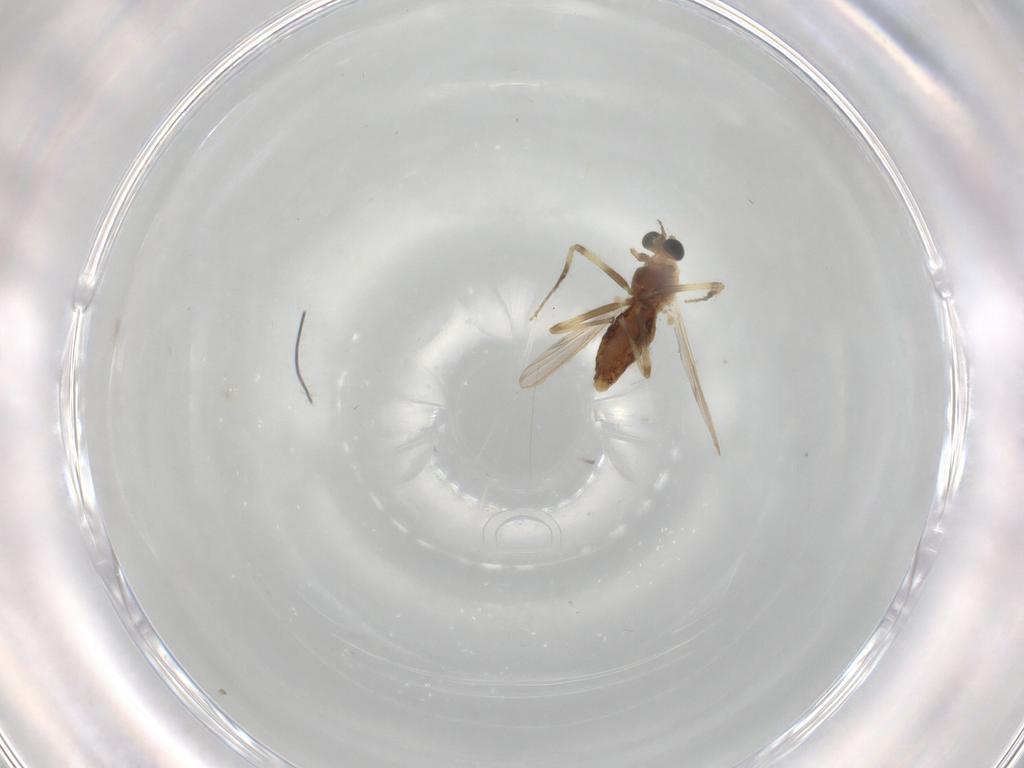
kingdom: Animalia
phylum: Arthropoda
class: Insecta
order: Diptera
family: Chironomidae
